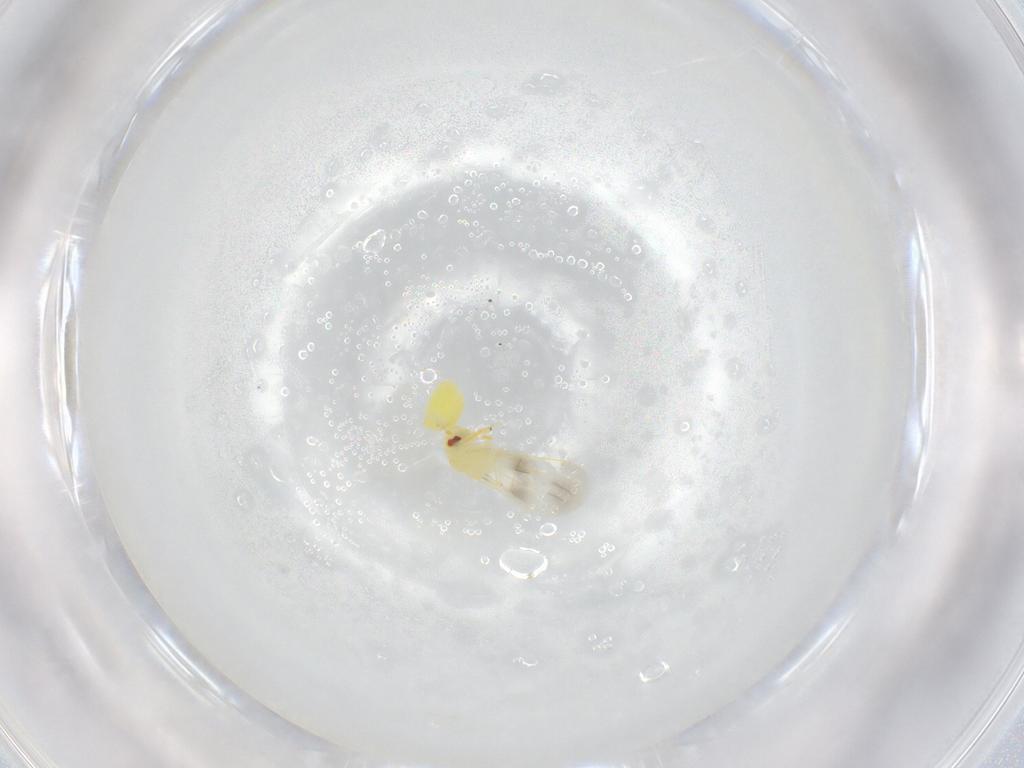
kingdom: Animalia
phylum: Arthropoda
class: Insecta
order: Hemiptera
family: Aleyrodidae
